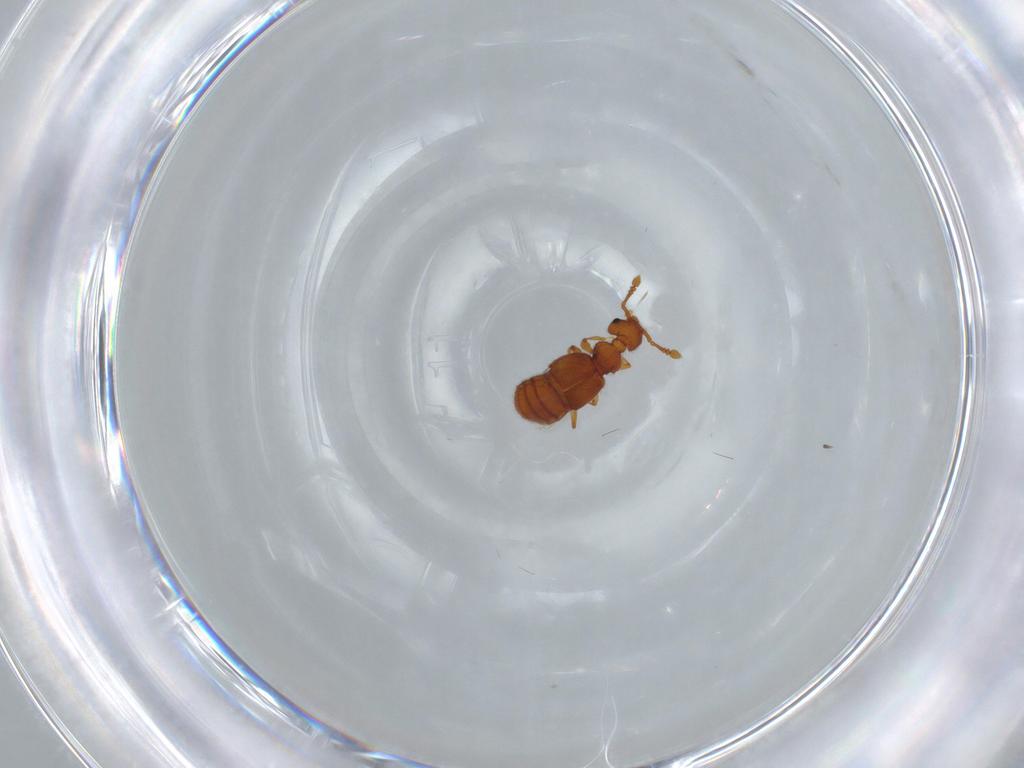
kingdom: Animalia
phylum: Arthropoda
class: Insecta
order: Coleoptera
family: Staphylinidae
